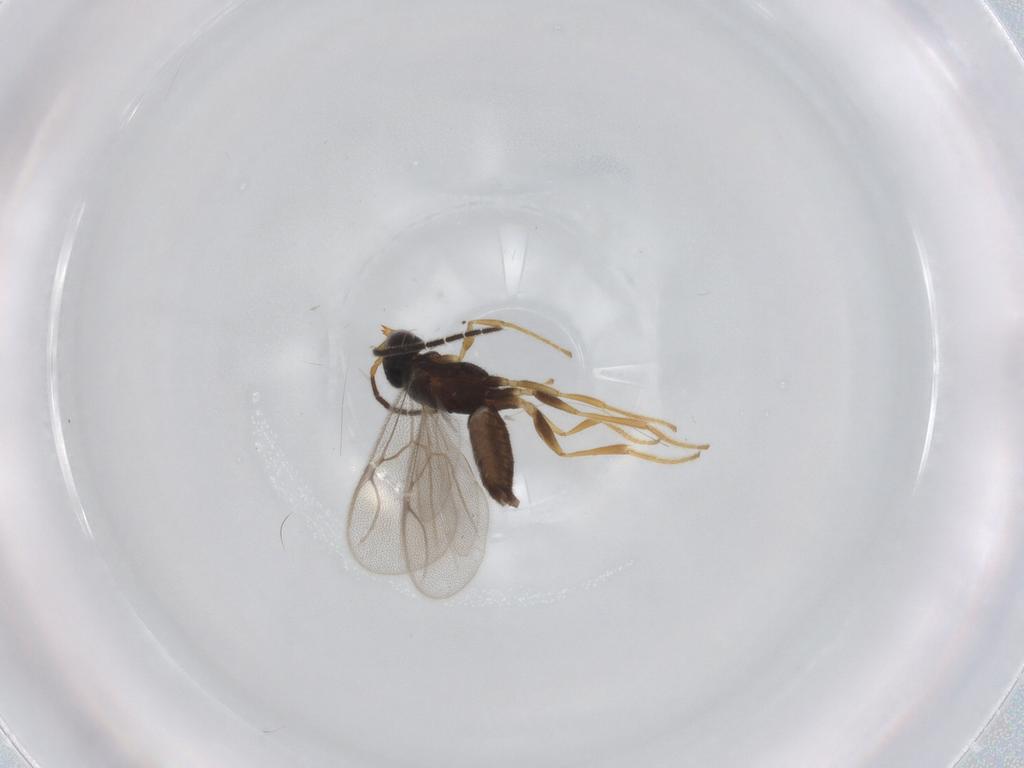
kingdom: Animalia
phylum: Arthropoda
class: Insecta
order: Hymenoptera
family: Dryinidae
